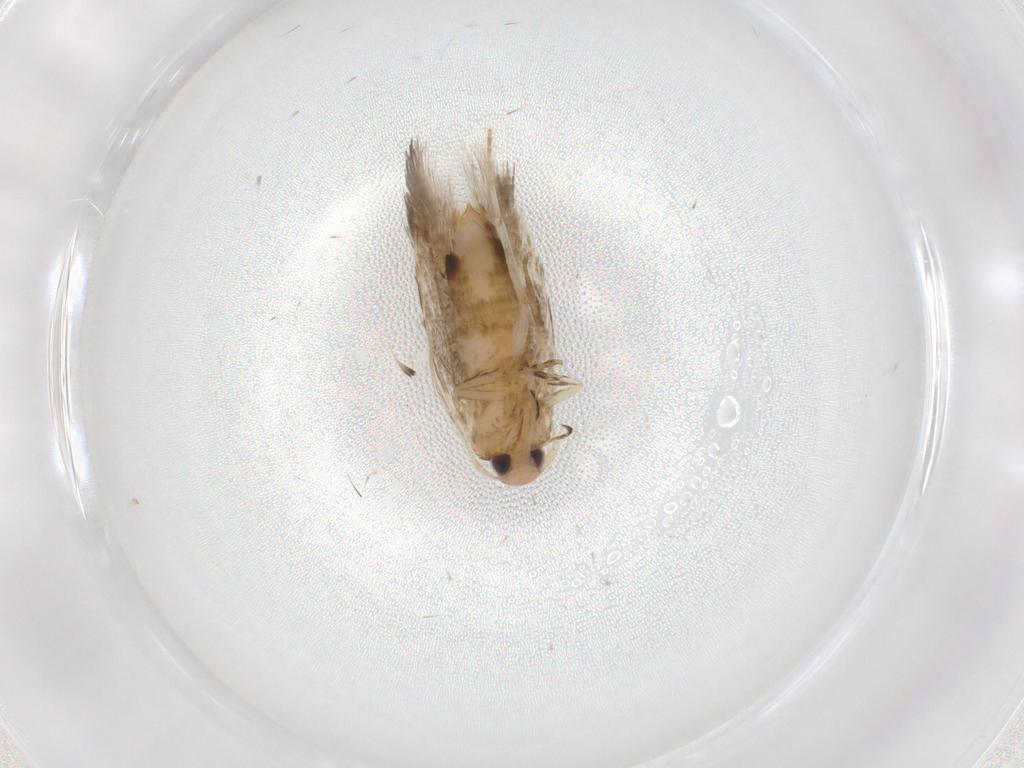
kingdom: Animalia
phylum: Arthropoda
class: Insecta
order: Lepidoptera
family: Cosmopterigidae
